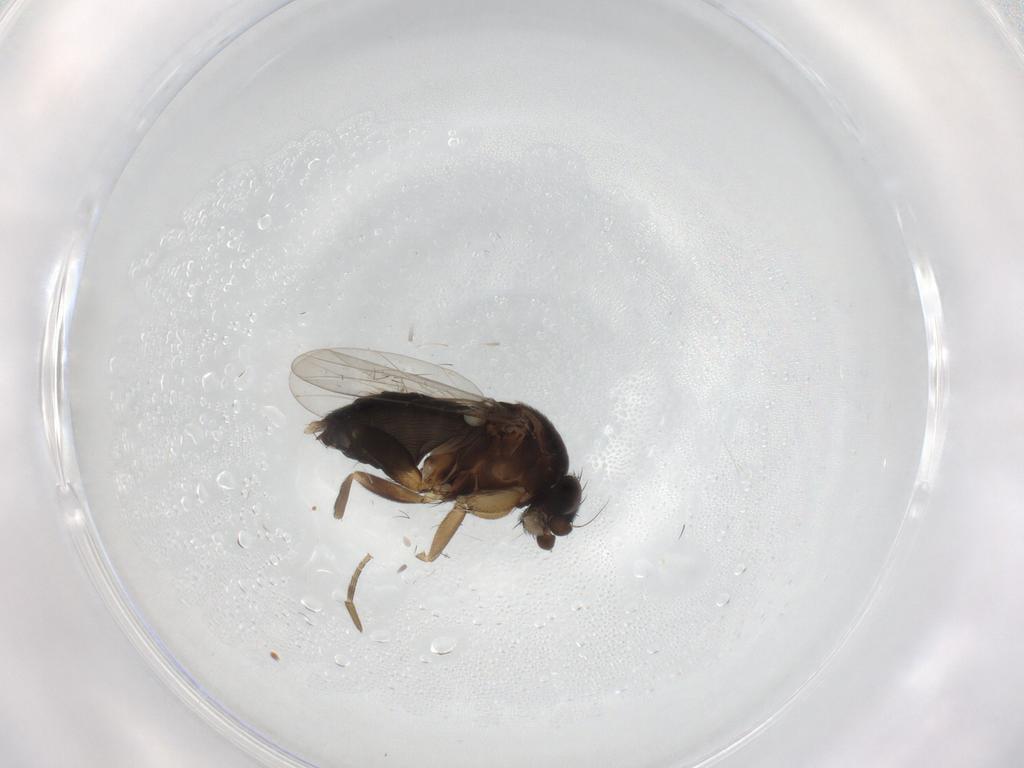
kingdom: Animalia
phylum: Arthropoda
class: Insecta
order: Diptera
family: Phoridae
